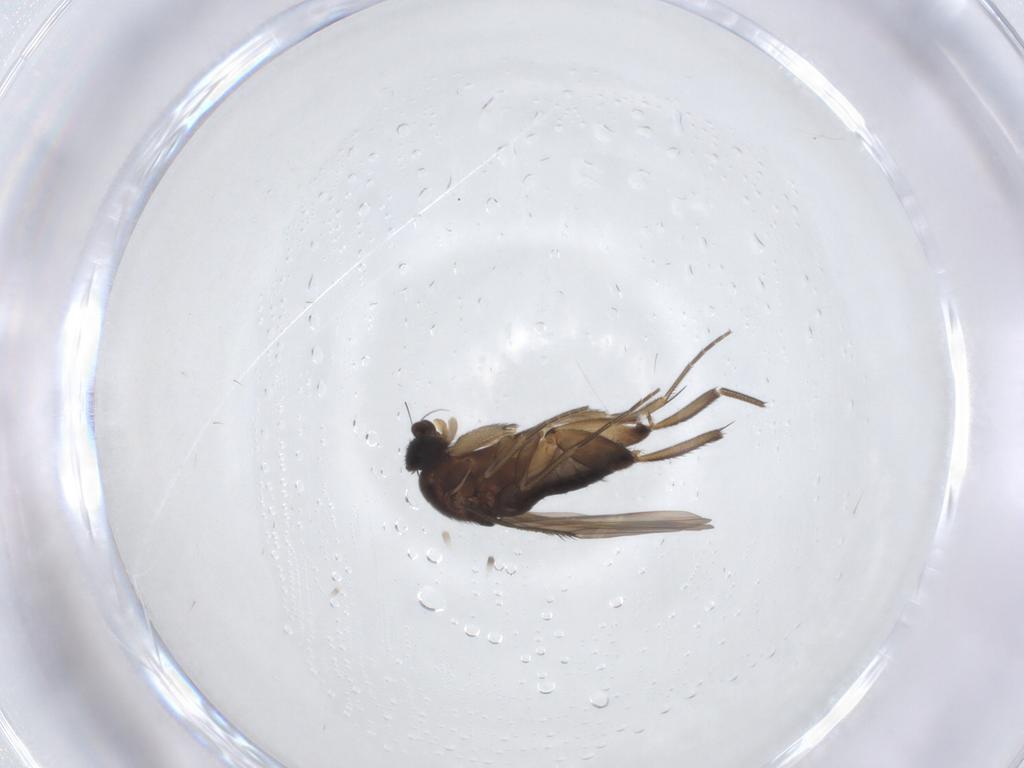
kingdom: Animalia
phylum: Arthropoda
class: Insecta
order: Diptera
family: Phoridae
